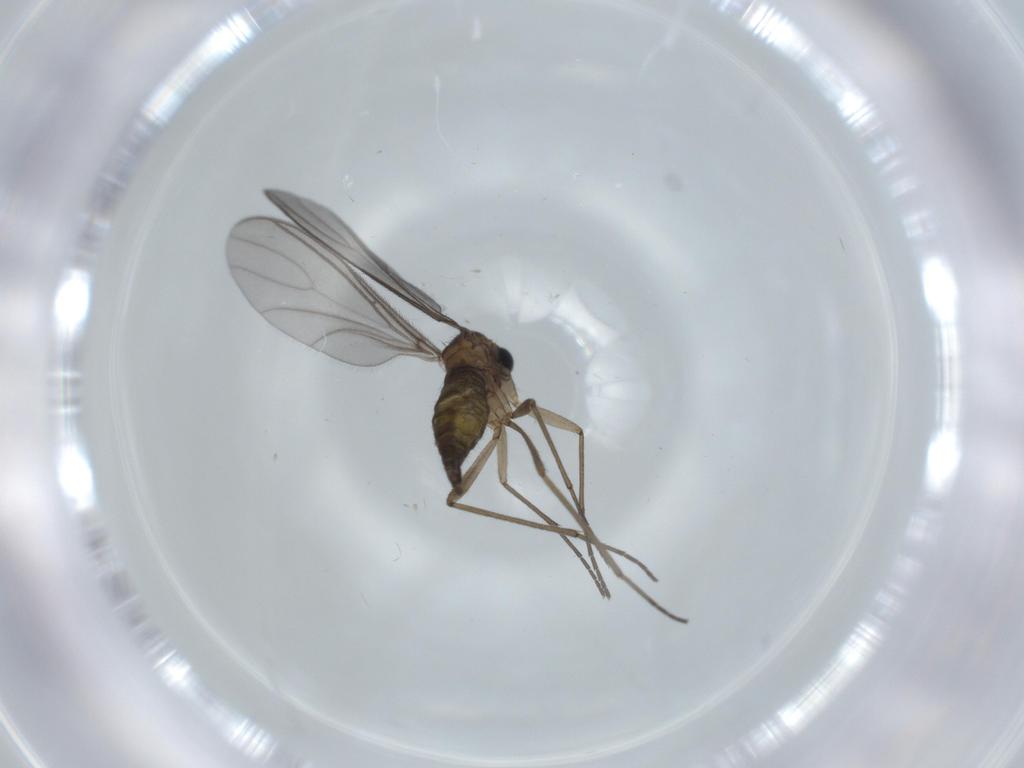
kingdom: Animalia
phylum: Arthropoda
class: Insecta
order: Diptera
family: Sciaridae
